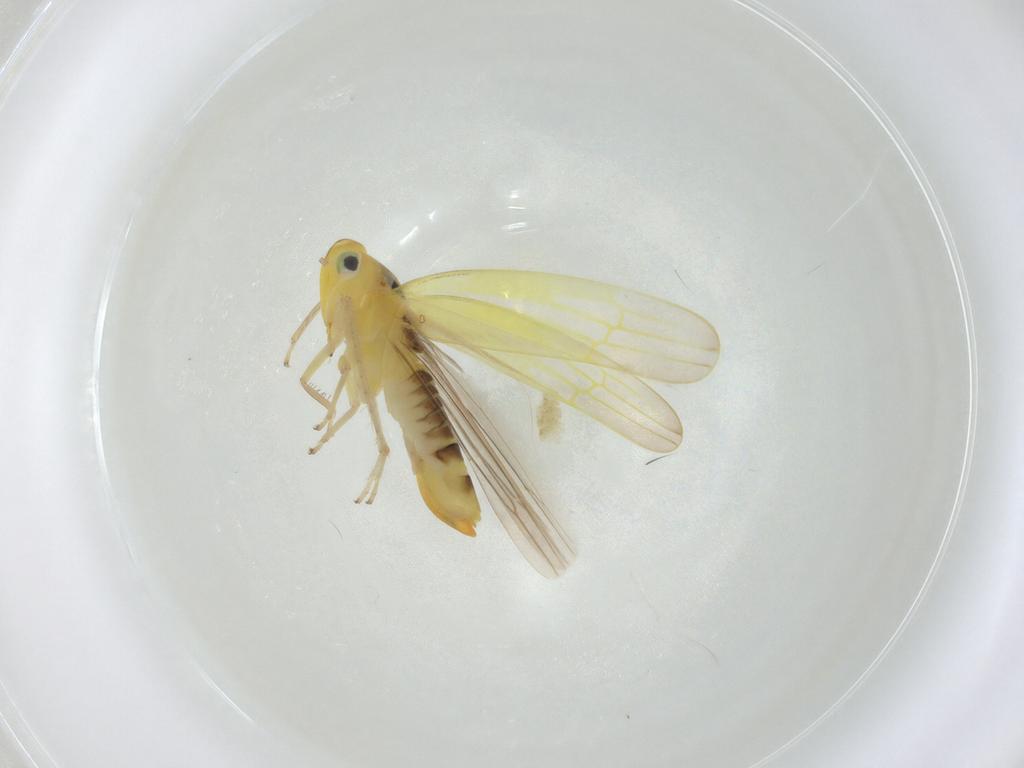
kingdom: Animalia
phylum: Arthropoda
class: Insecta
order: Hemiptera
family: Cicadellidae
